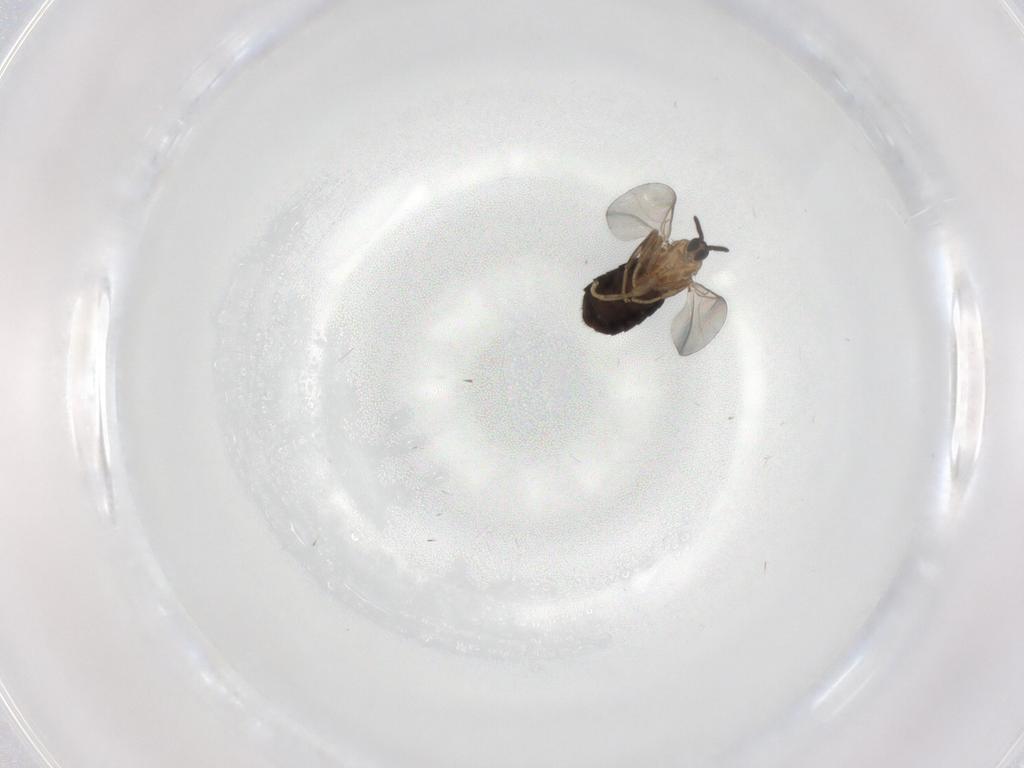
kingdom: Animalia
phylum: Arthropoda
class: Insecta
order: Diptera
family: Scatopsidae
